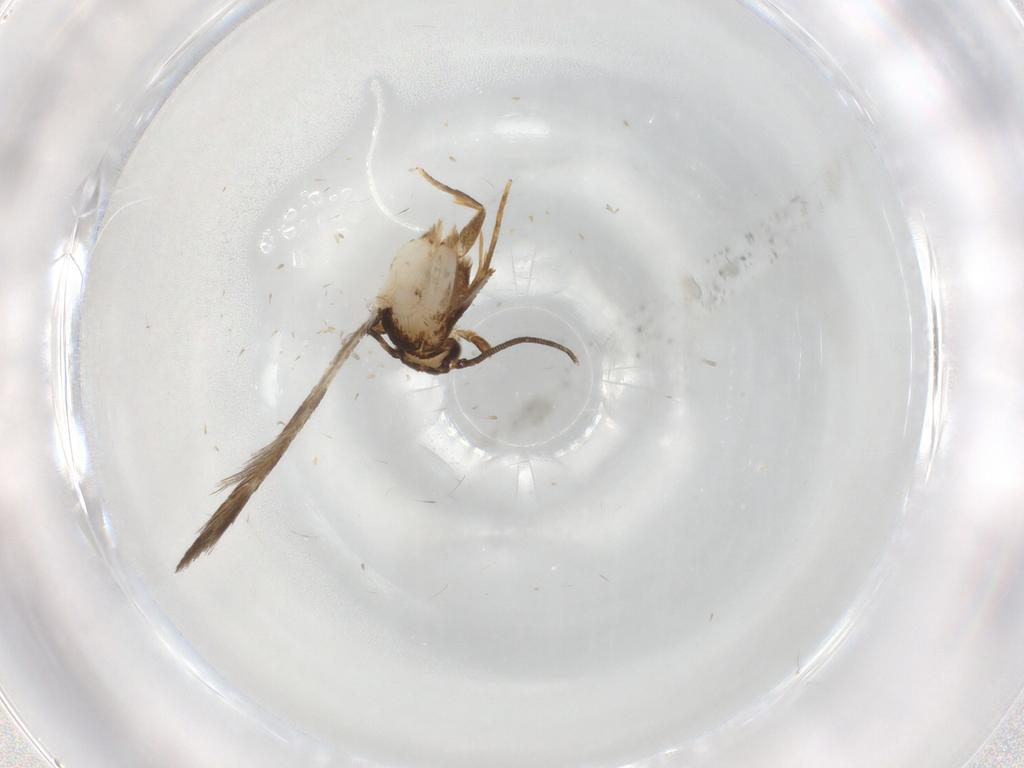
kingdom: Animalia
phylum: Arthropoda
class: Insecta
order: Lepidoptera
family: Tineidae
